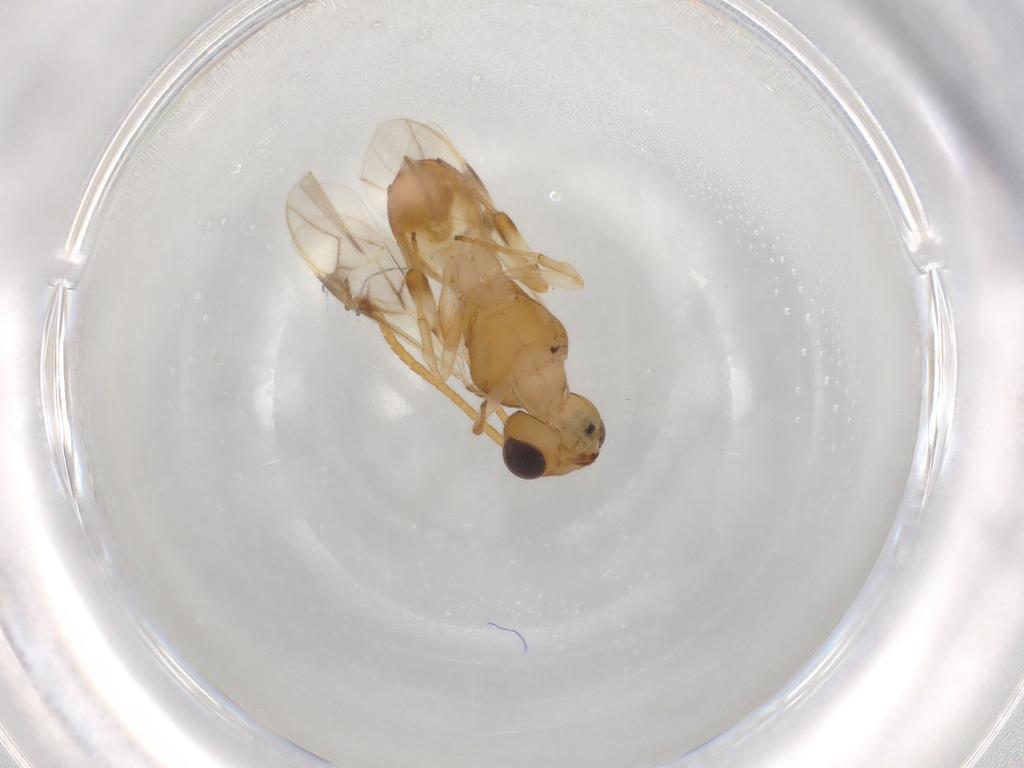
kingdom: Animalia
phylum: Arthropoda
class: Insecta
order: Hymenoptera
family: Braconidae
